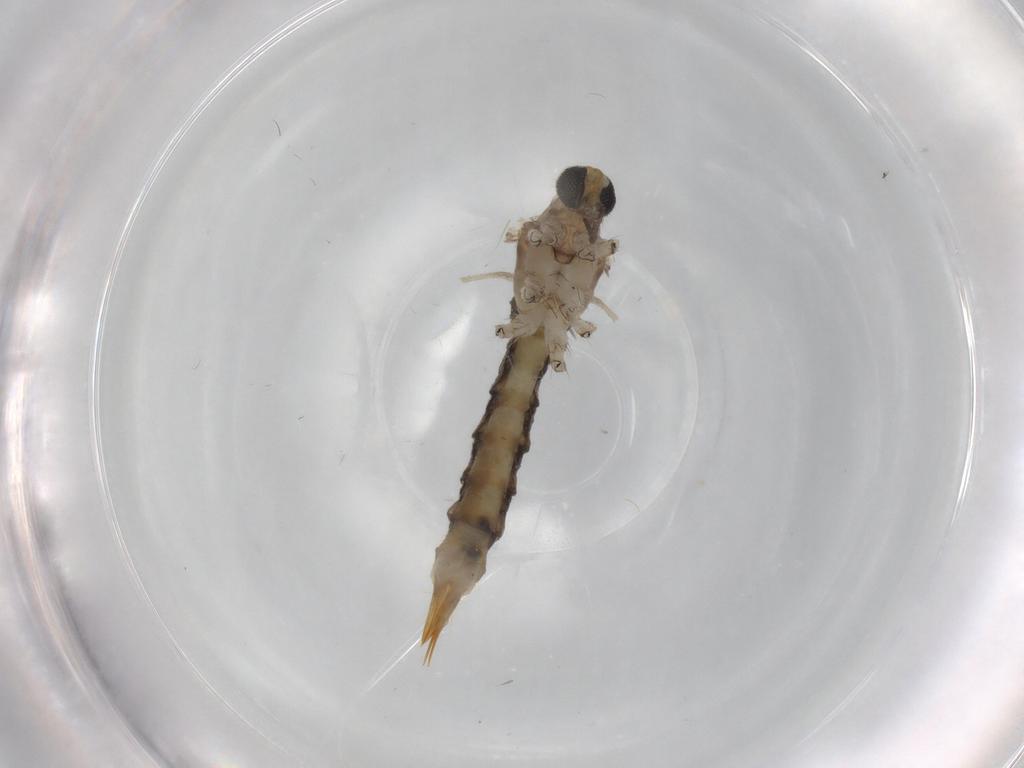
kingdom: Animalia
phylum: Arthropoda
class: Insecta
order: Diptera
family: Limoniidae
